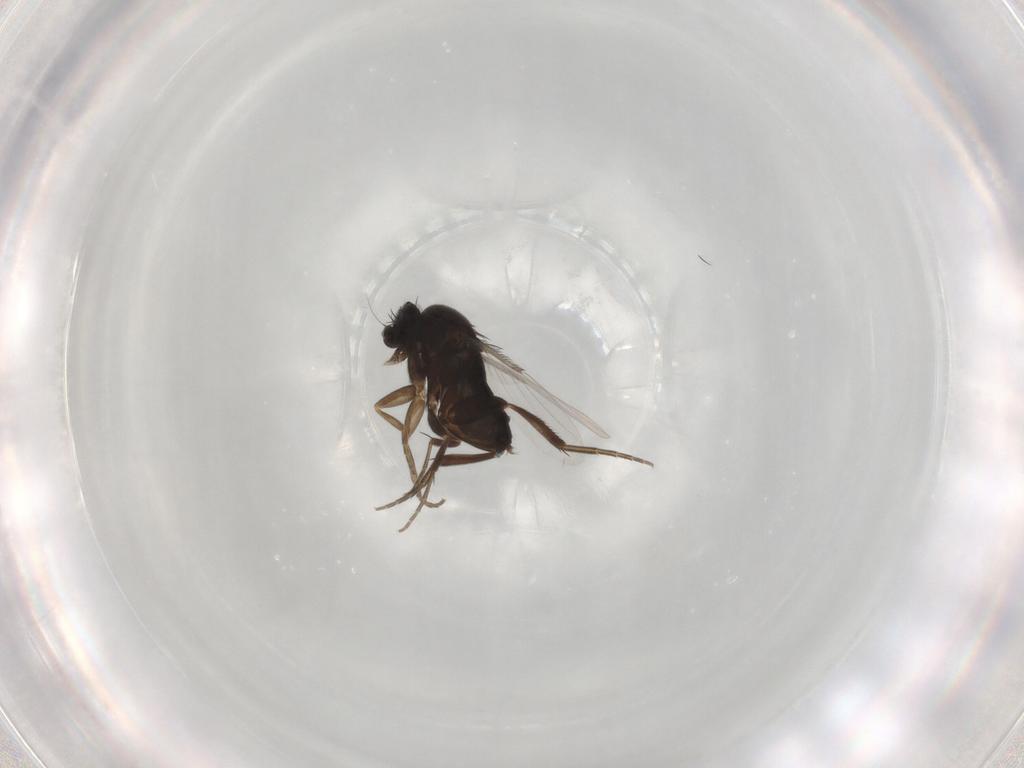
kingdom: Animalia
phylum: Arthropoda
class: Insecta
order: Diptera
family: Phoridae
